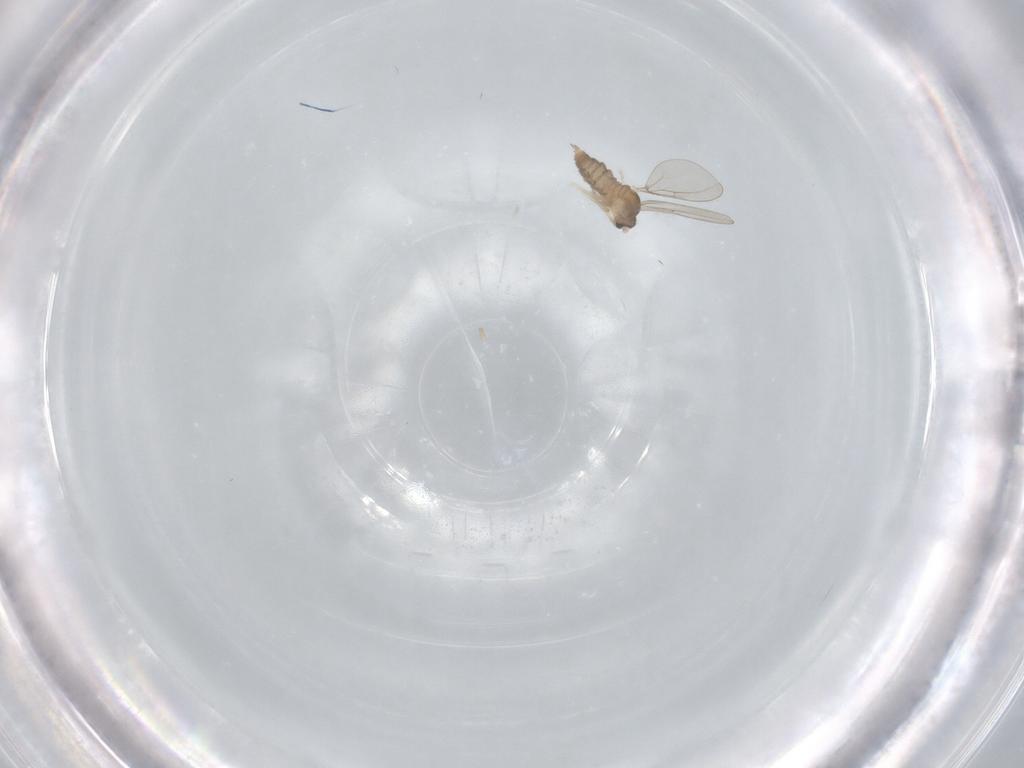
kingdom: Animalia
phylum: Arthropoda
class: Insecta
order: Diptera
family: Cecidomyiidae
